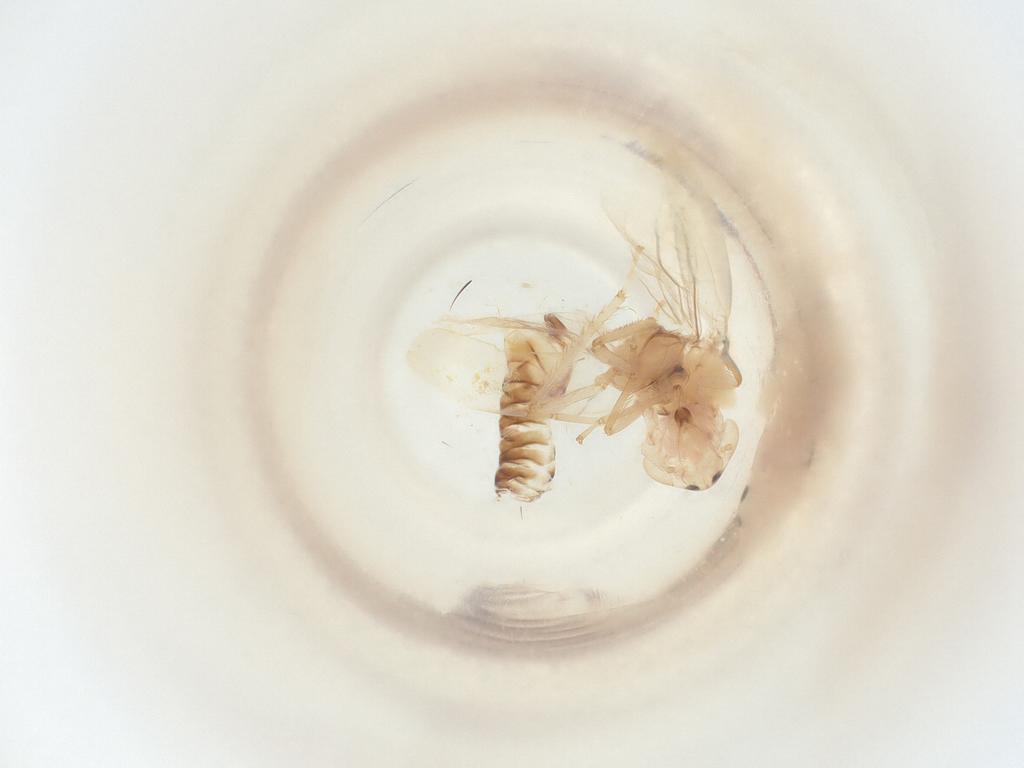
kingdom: Animalia
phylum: Arthropoda
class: Insecta
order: Hemiptera
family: Cicadellidae
